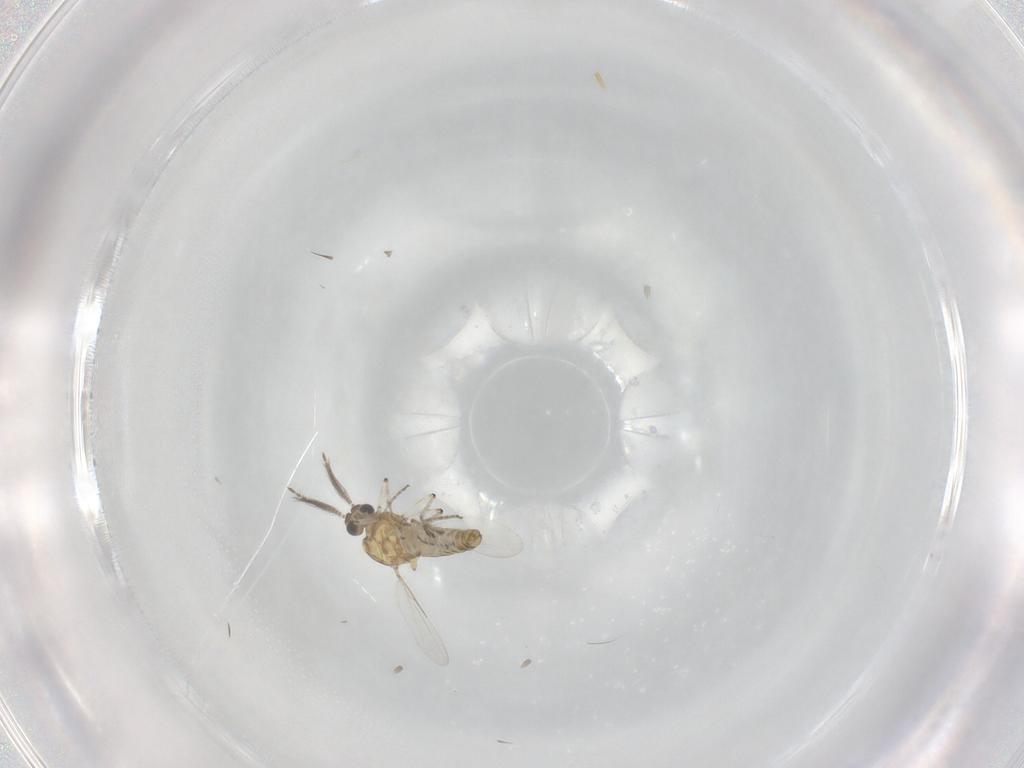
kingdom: Animalia
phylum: Arthropoda
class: Insecta
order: Diptera
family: Ceratopogonidae
